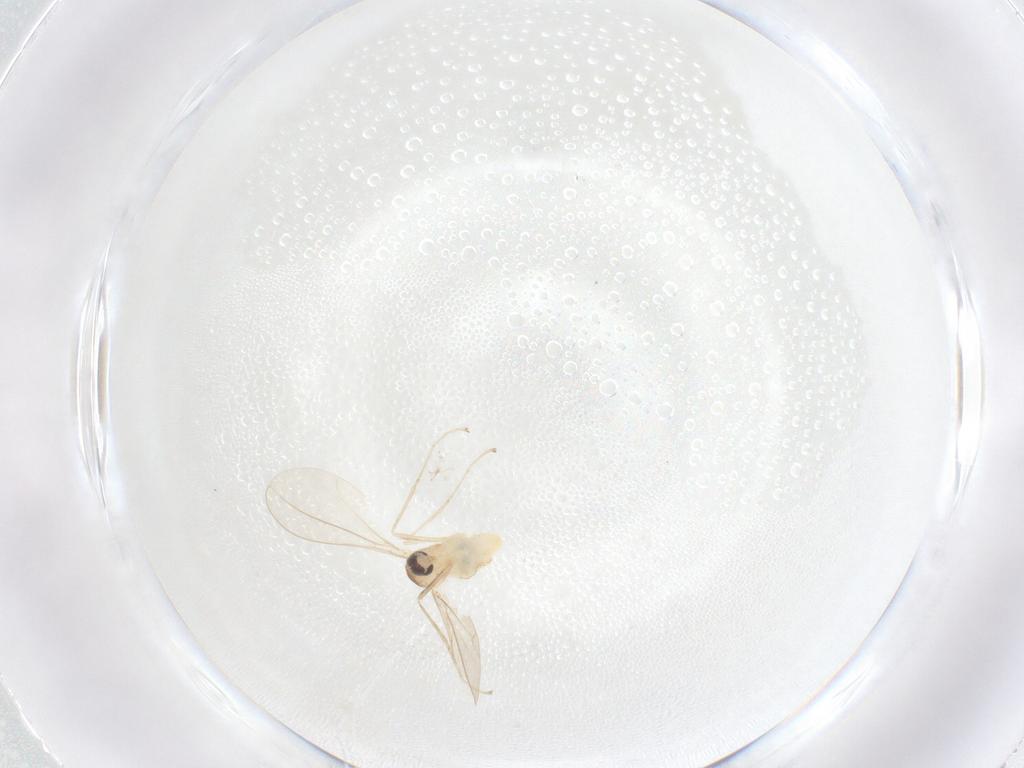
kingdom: Animalia
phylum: Arthropoda
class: Insecta
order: Diptera
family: Cecidomyiidae
